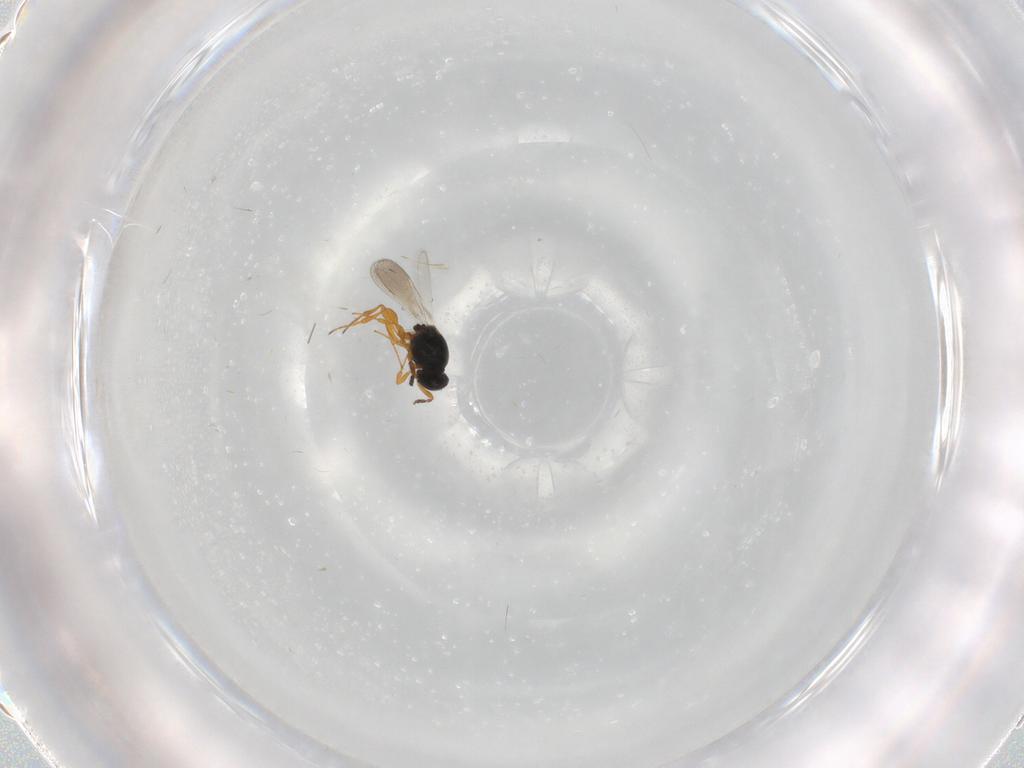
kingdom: Animalia
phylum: Arthropoda
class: Insecta
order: Hymenoptera
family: Platygastridae
